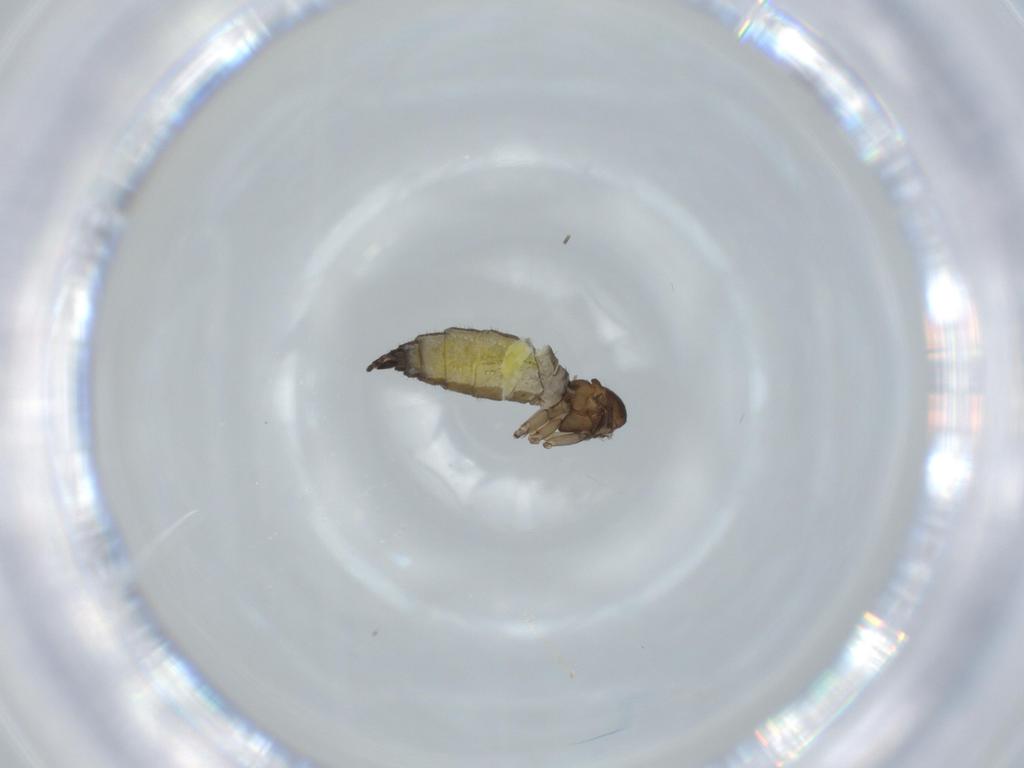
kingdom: Animalia
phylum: Arthropoda
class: Insecta
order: Diptera
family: Sciaridae
